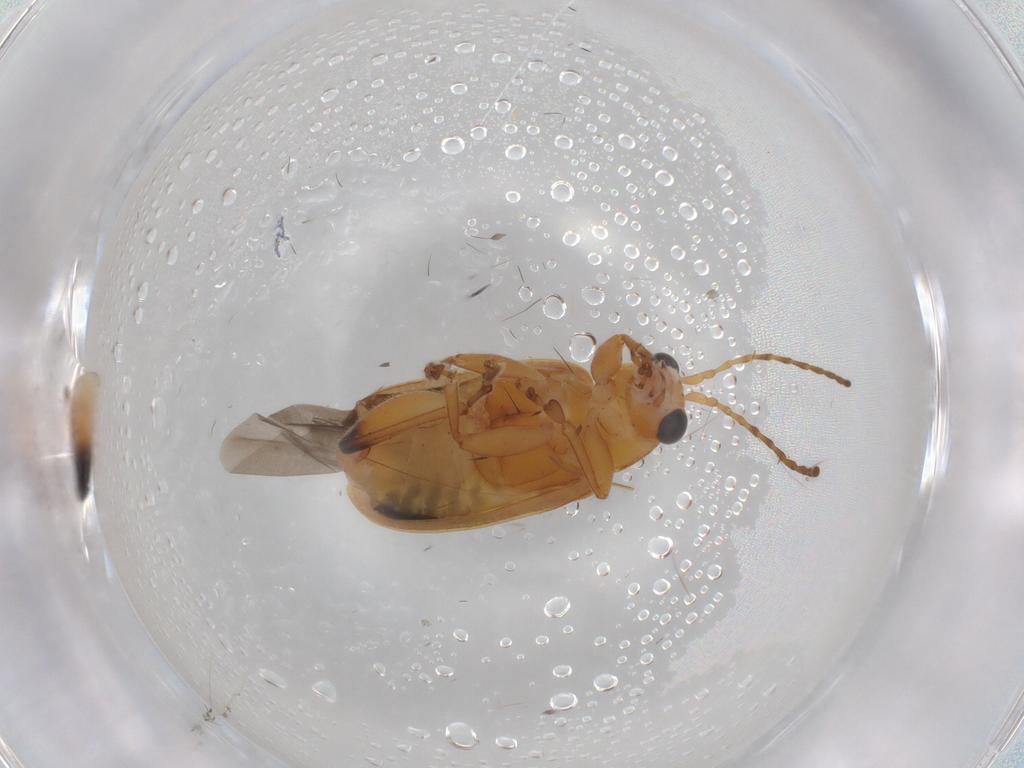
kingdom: Animalia
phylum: Arthropoda
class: Insecta
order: Coleoptera
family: Chrysomelidae
